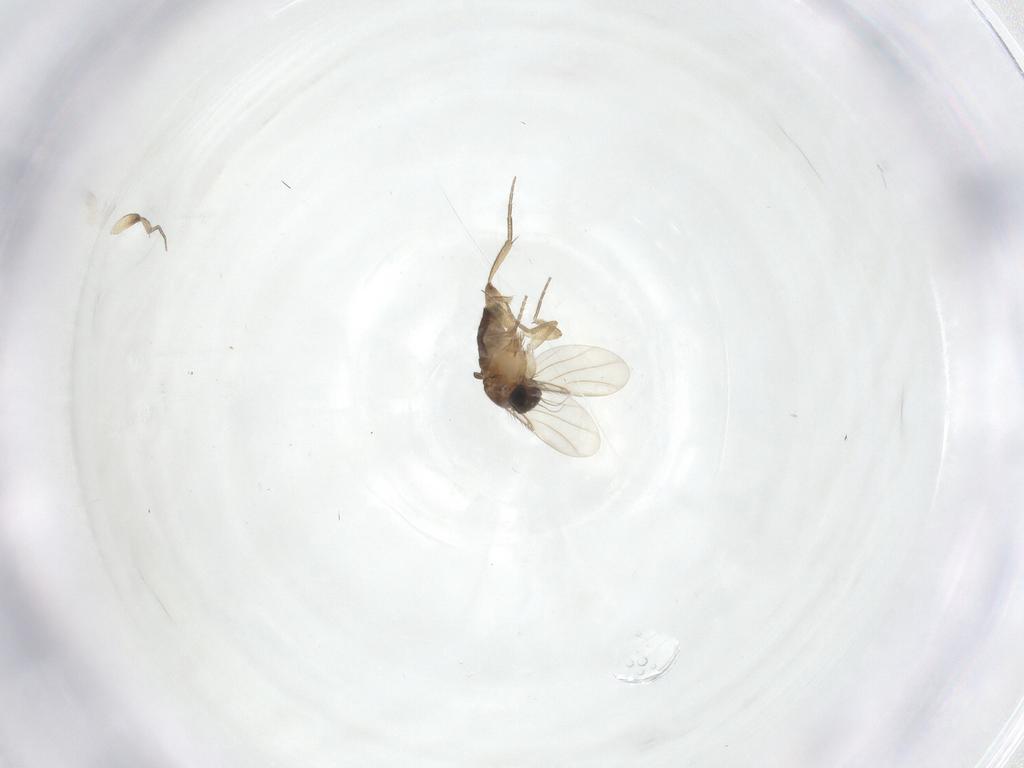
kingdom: Animalia
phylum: Arthropoda
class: Insecta
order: Diptera
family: Phoridae
